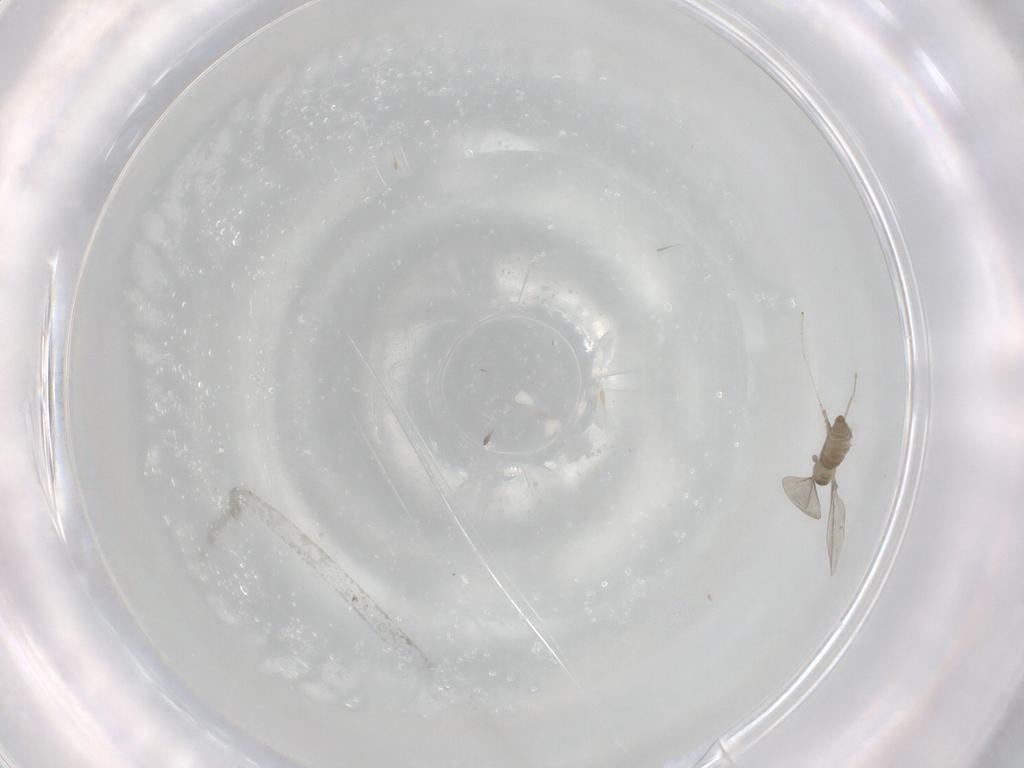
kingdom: Animalia
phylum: Arthropoda
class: Insecta
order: Diptera
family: Cecidomyiidae
